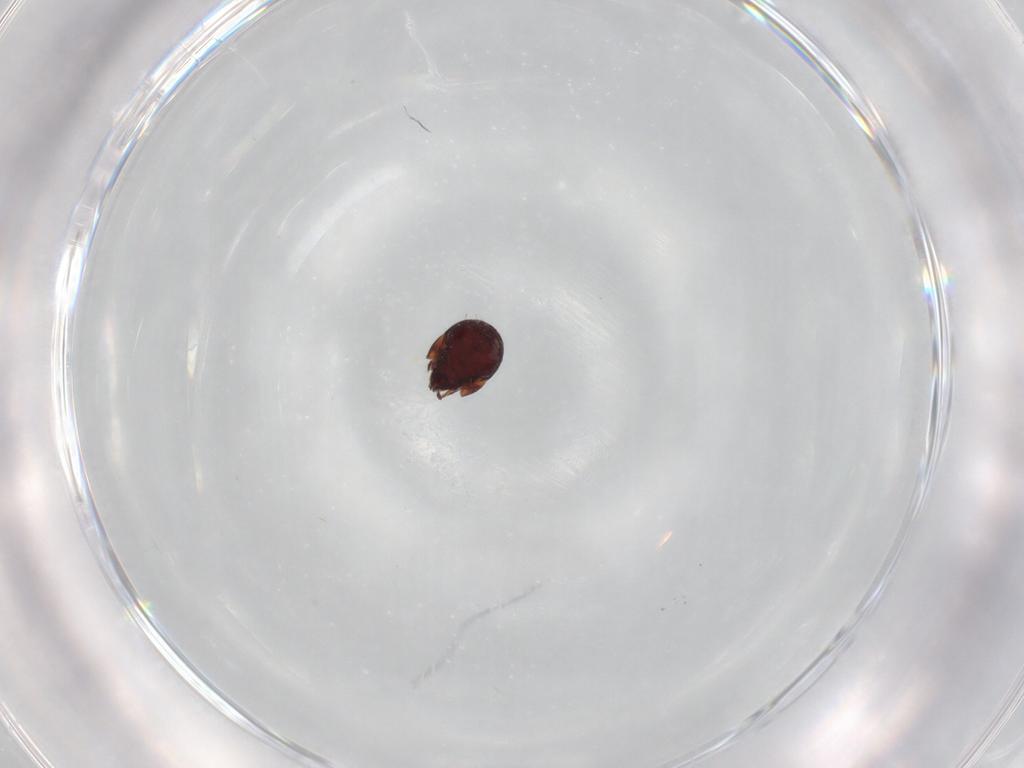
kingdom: Animalia
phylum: Arthropoda
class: Arachnida
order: Sarcoptiformes
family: Humerobatidae
